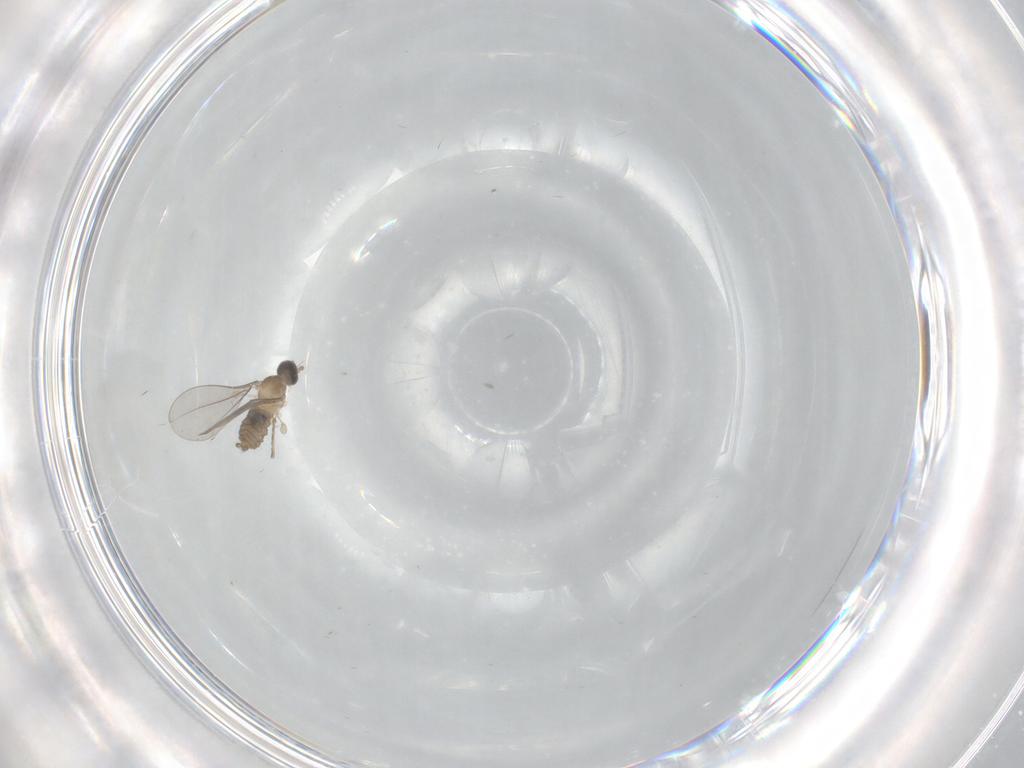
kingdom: Animalia
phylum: Arthropoda
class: Insecta
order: Diptera
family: Cecidomyiidae
